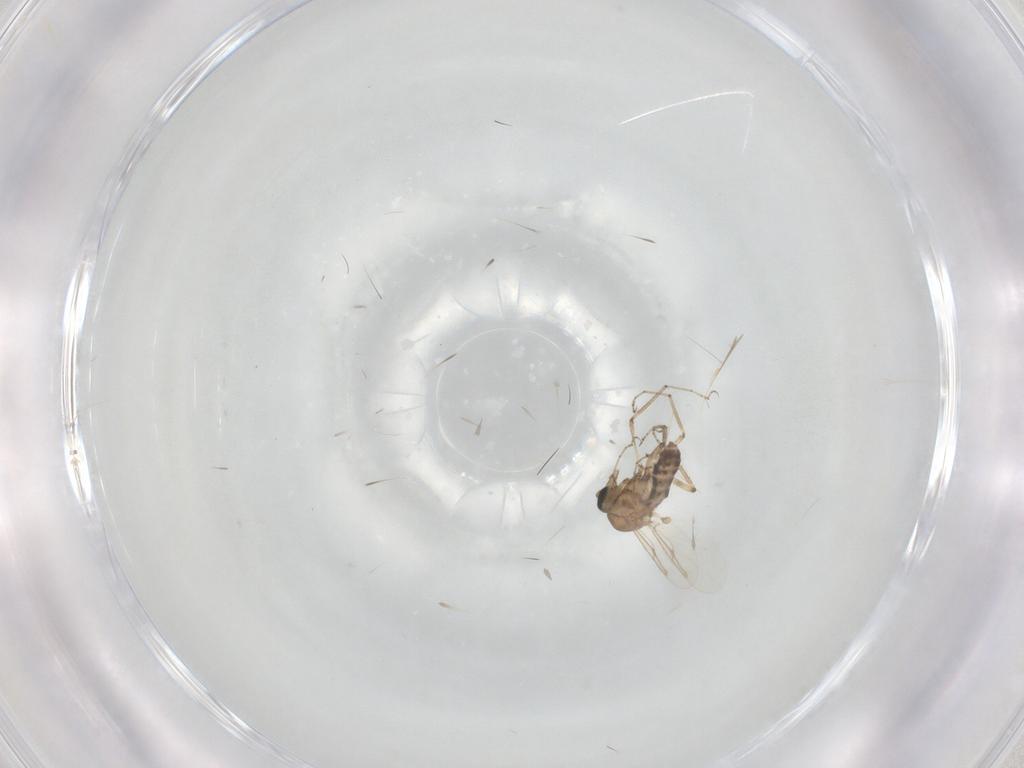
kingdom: Animalia
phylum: Arthropoda
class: Insecta
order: Diptera
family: Ceratopogonidae
